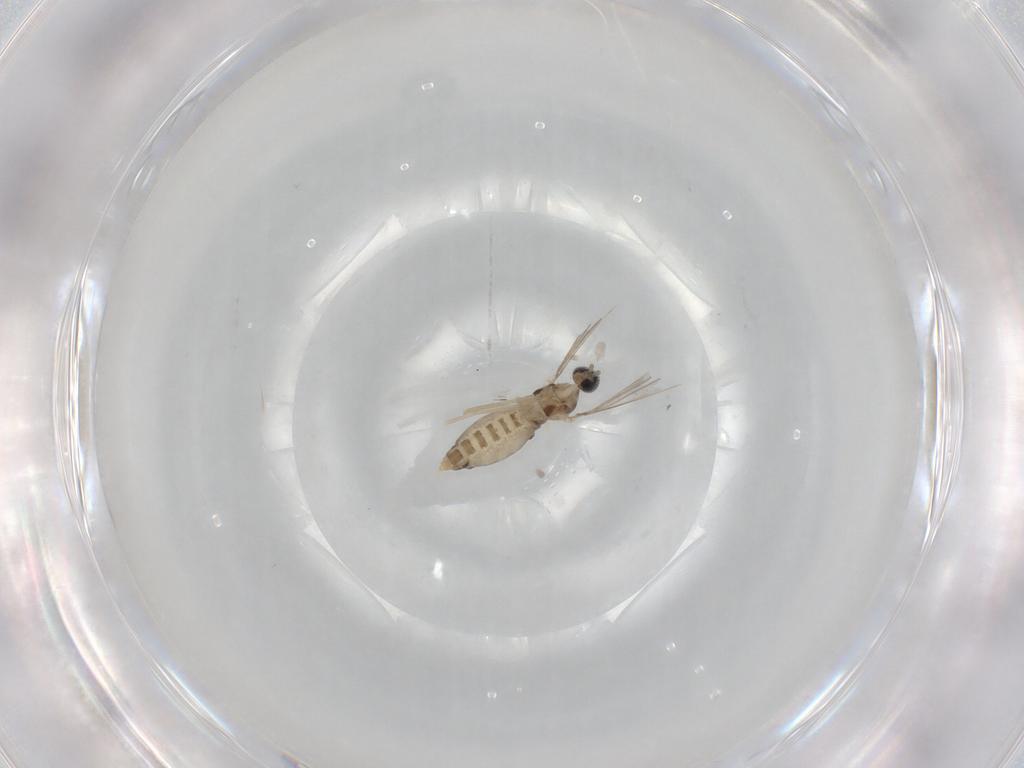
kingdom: Animalia
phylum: Arthropoda
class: Insecta
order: Diptera
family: Cecidomyiidae
